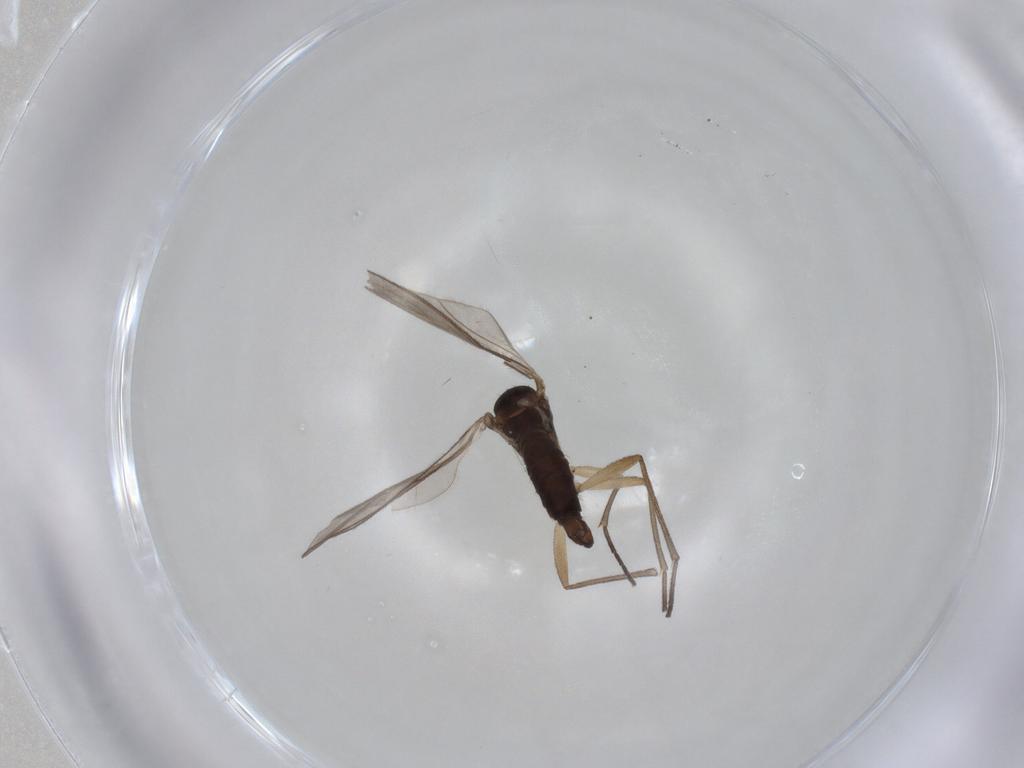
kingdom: Animalia
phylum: Arthropoda
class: Insecta
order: Diptera
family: Sciaridae
